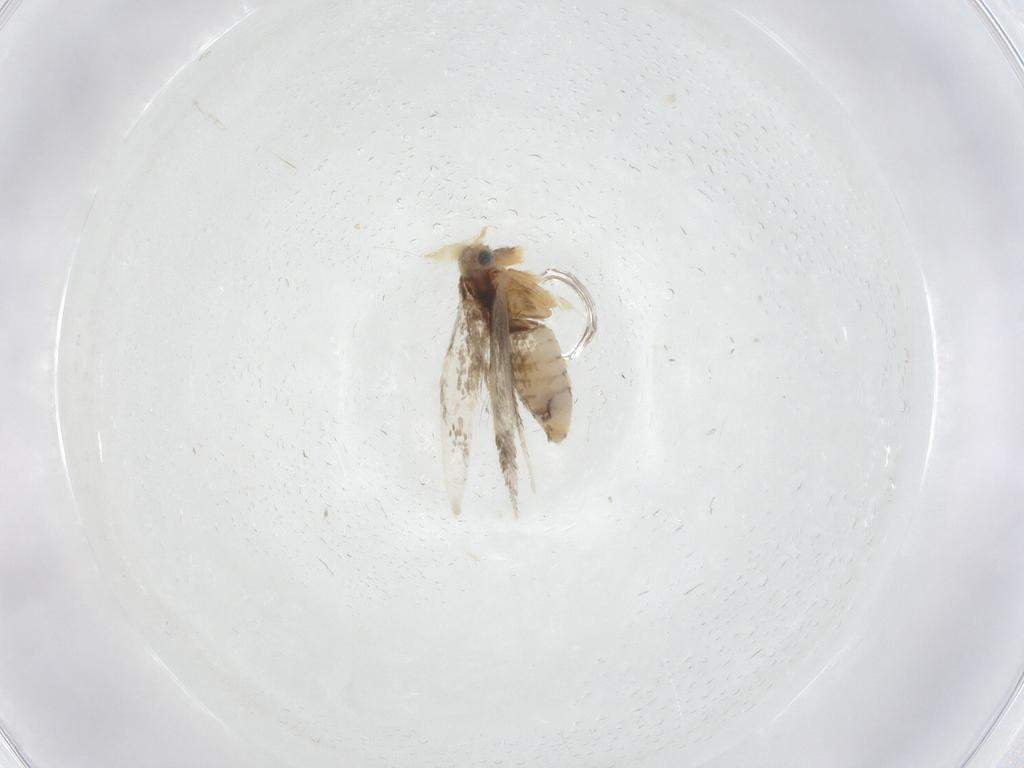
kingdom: Animalia
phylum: Arthropoda
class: Insecta
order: Lepidoptera
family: Nepticulidae
